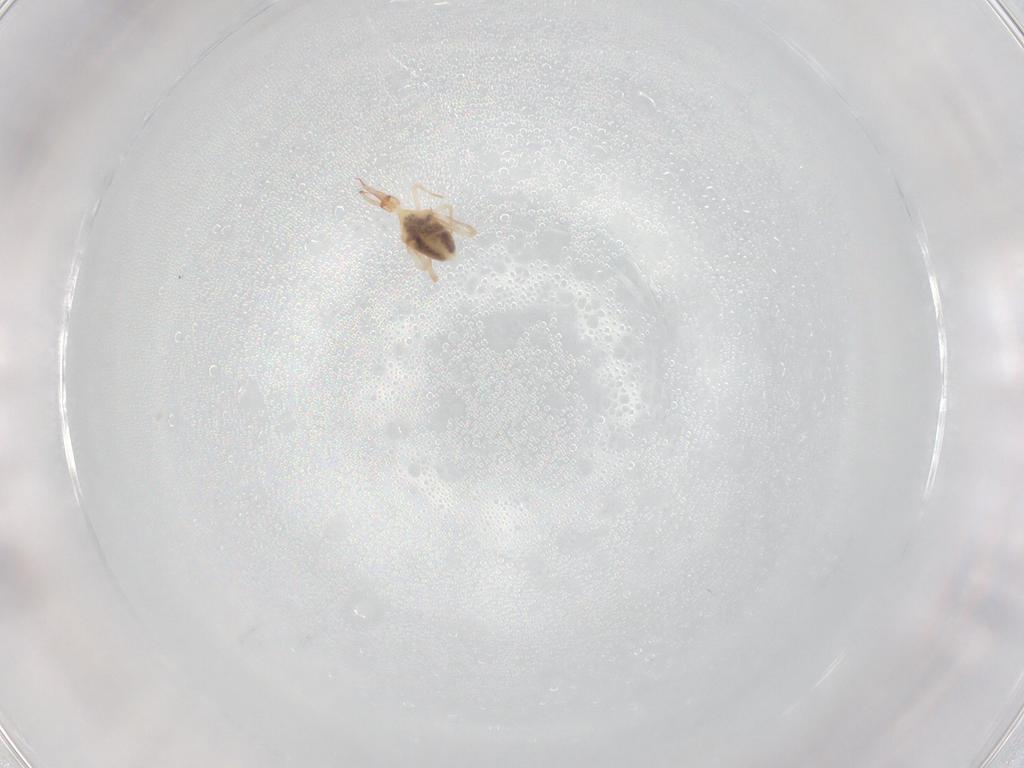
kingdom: Animalia
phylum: Arthropoda
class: Insecta
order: Diptera
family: Cecidomyiidae
